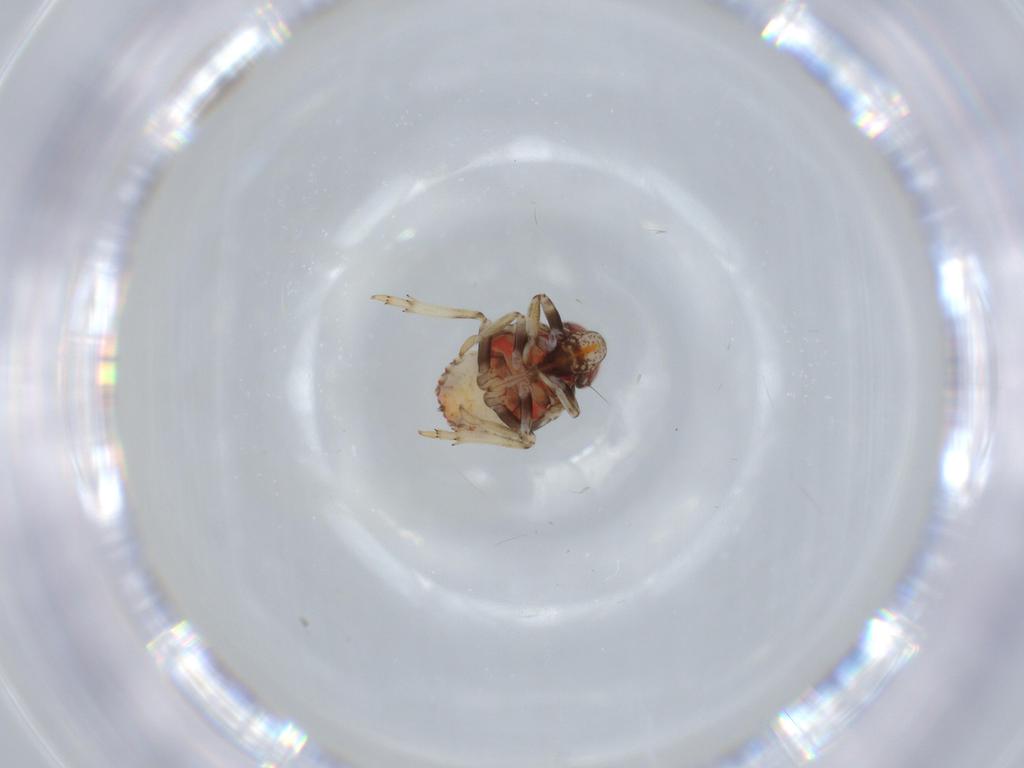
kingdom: Animalia
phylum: Arthropoda
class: Insecta
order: Hemiptera
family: Issidae
